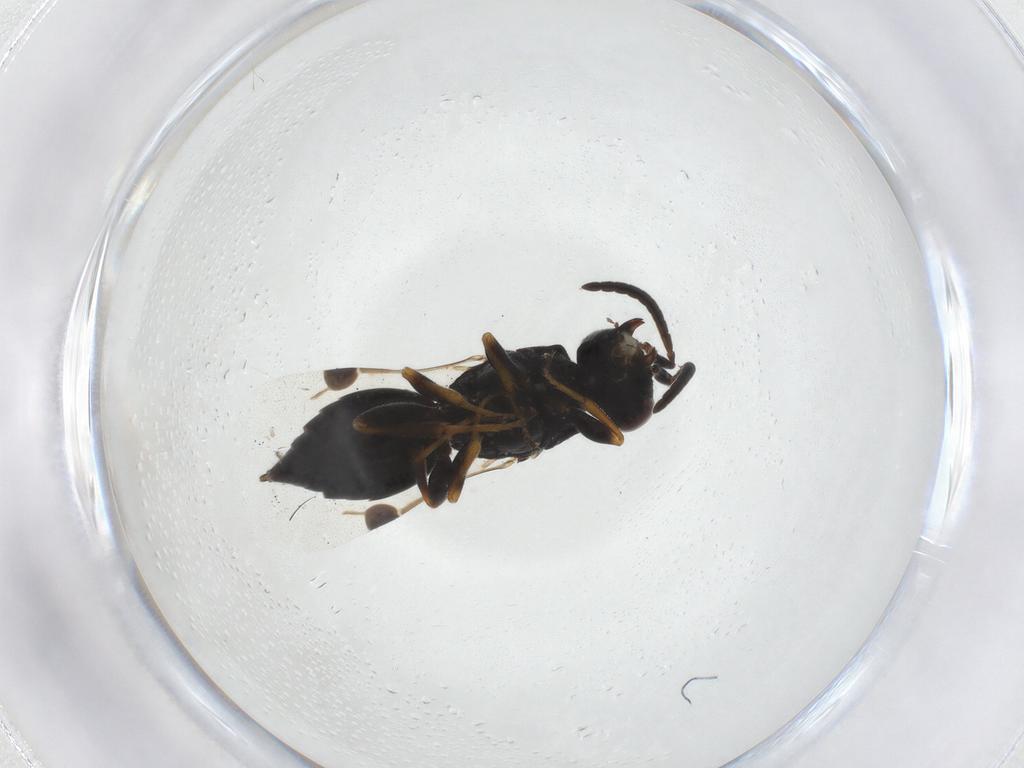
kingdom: Animalia
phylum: Arthropoda
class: Insecta
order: Hymenoptera
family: Megaspilidae
